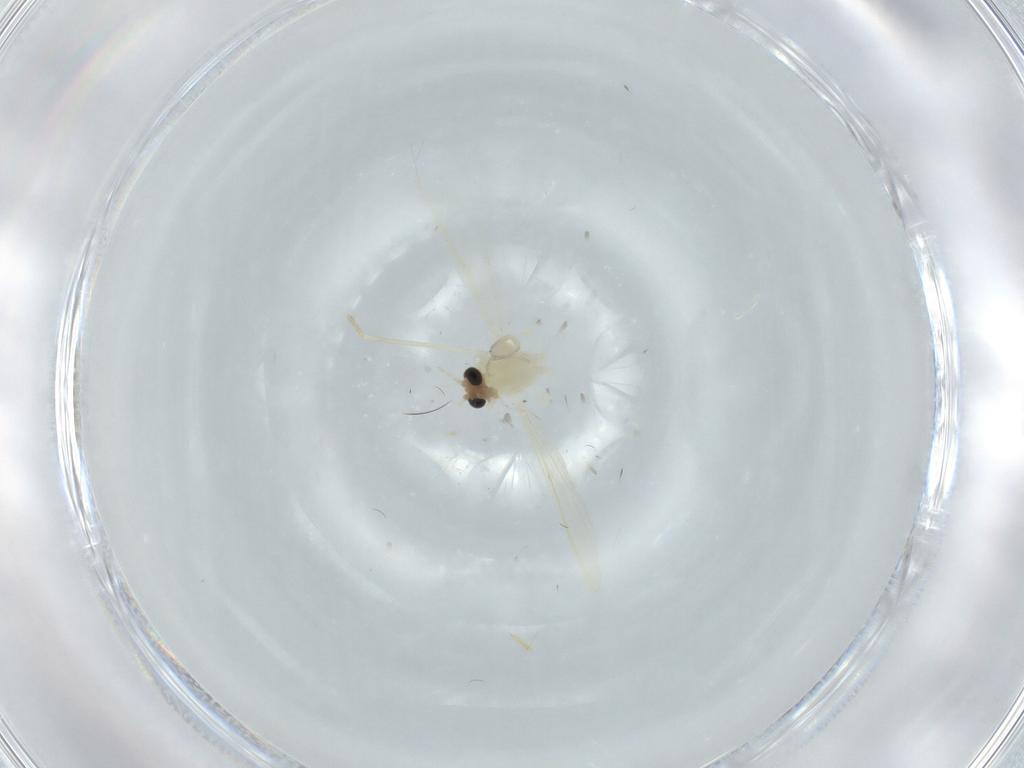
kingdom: Animalia
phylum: Arthropoda
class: Insecta
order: Diptera
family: Chironomidae
